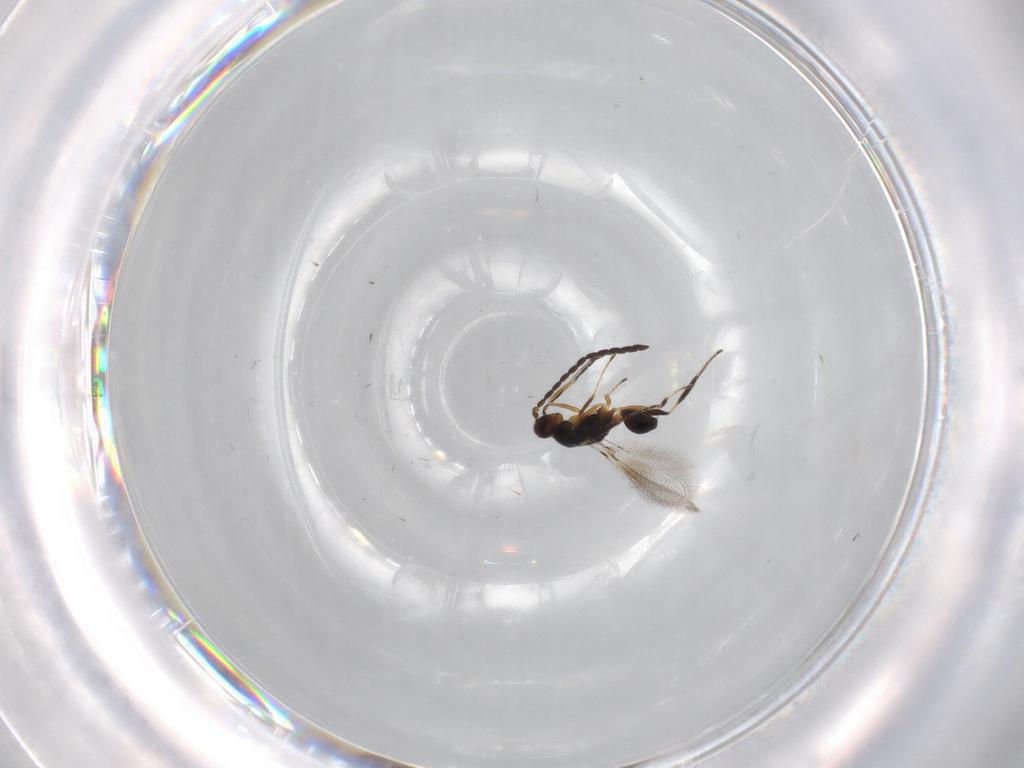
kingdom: Animalia
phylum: Arthropoda
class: Insecta
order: Hymenoptera
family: Mymaridae
